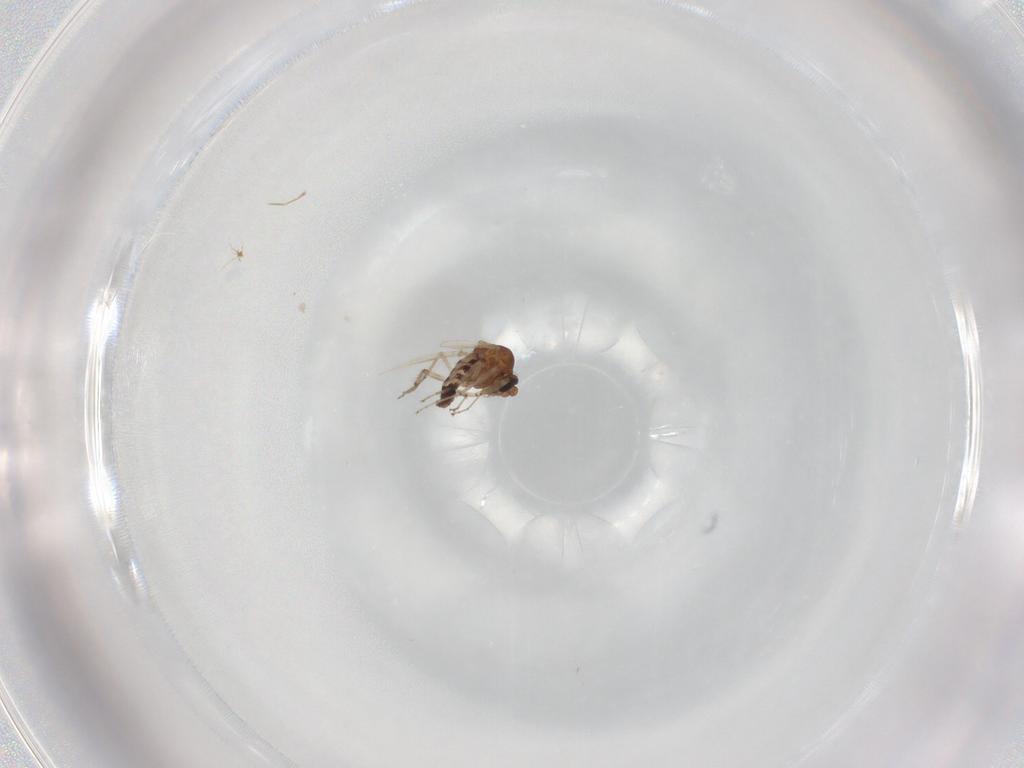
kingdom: Animalia
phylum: Arthropoda
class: Insecta
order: Diptera
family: Ceratopogonidae
